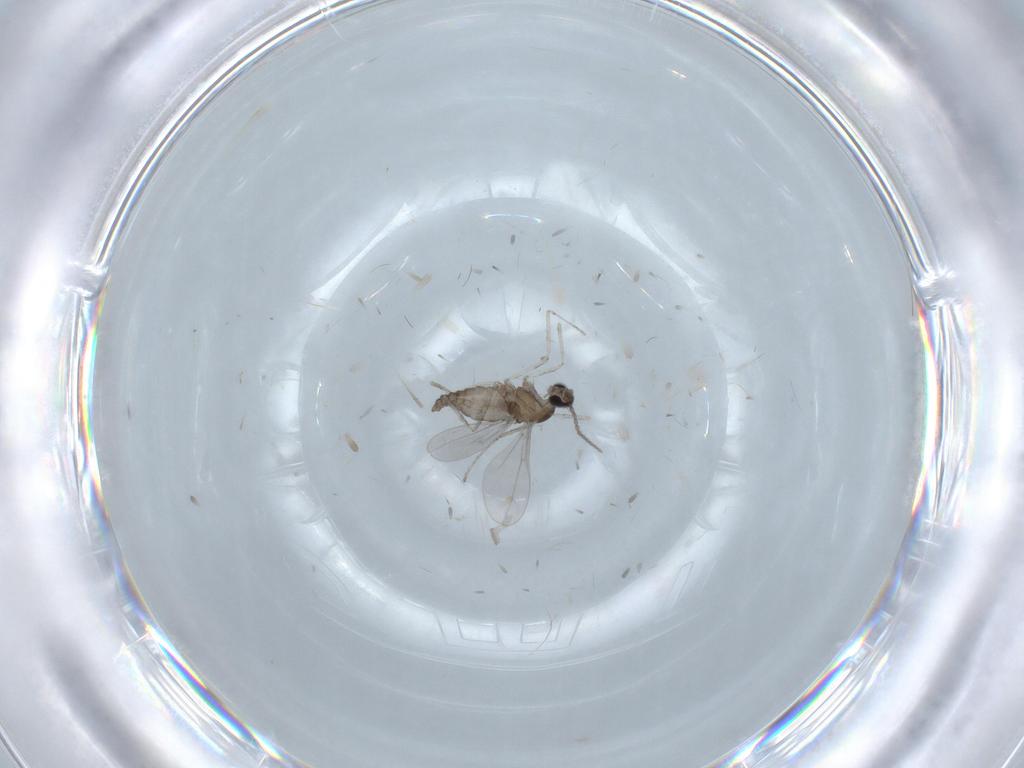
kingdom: Animalia
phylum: Arthropoda
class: Insecta
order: Diptera
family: Cecidomyiidae
